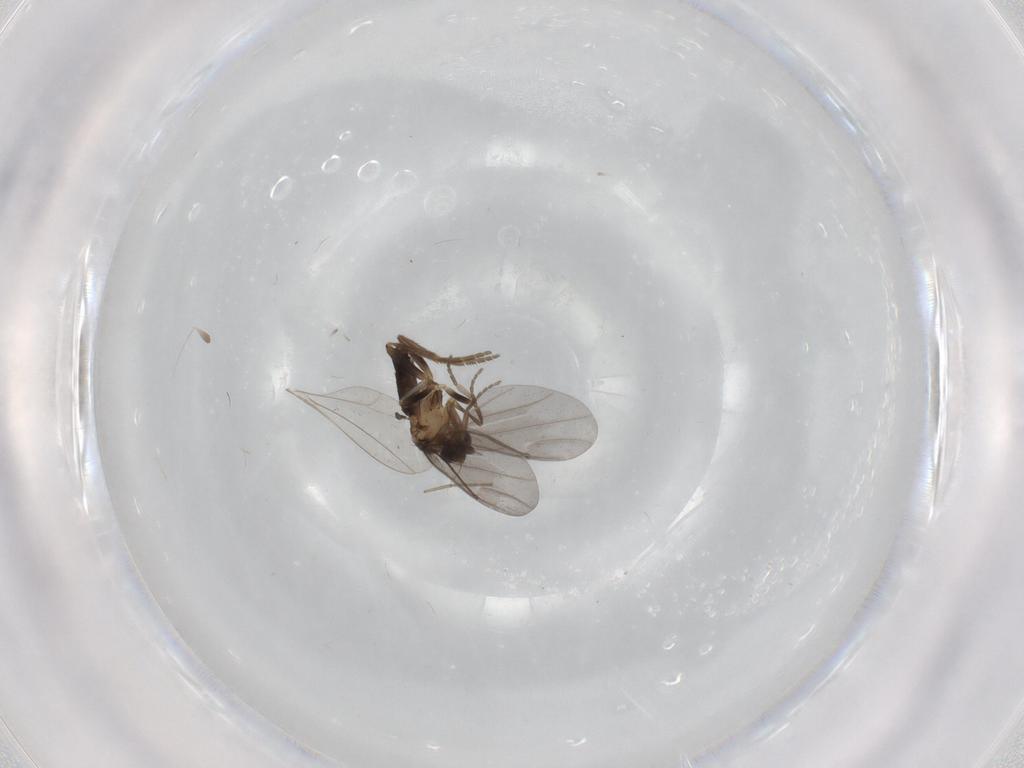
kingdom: Animalia
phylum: Arthropoda
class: Insecta
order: Diptera
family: Phoridae
